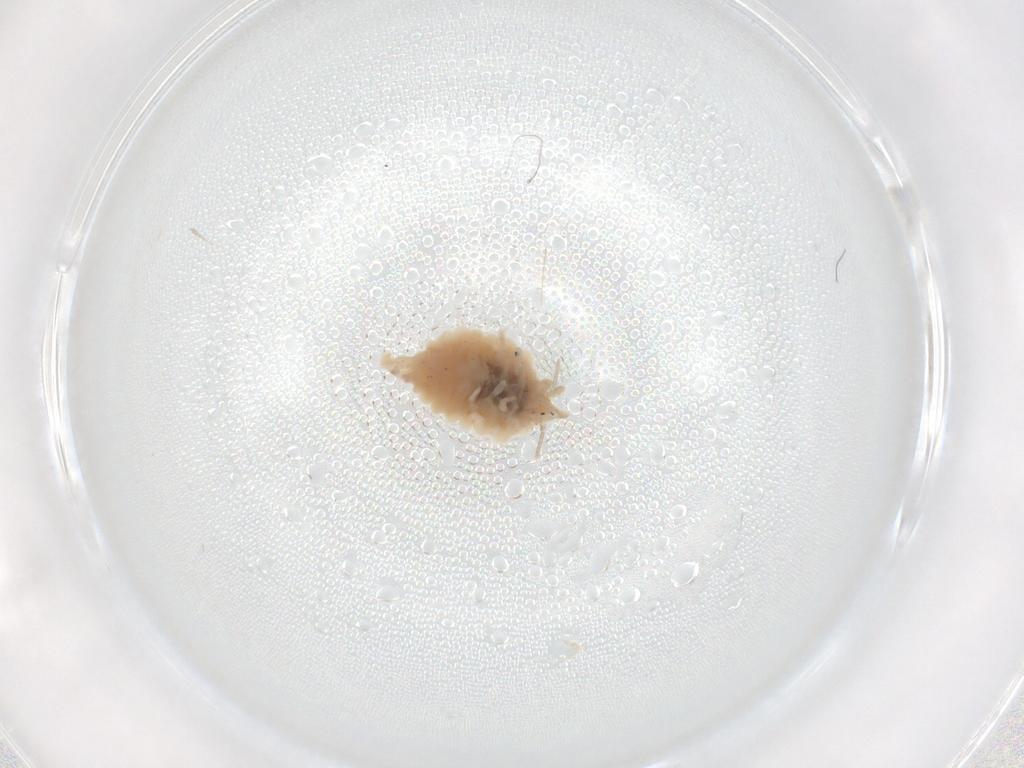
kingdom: Animalia
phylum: Arthropoda
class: Insecta
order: Neuroptera
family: Coniopterygidae
